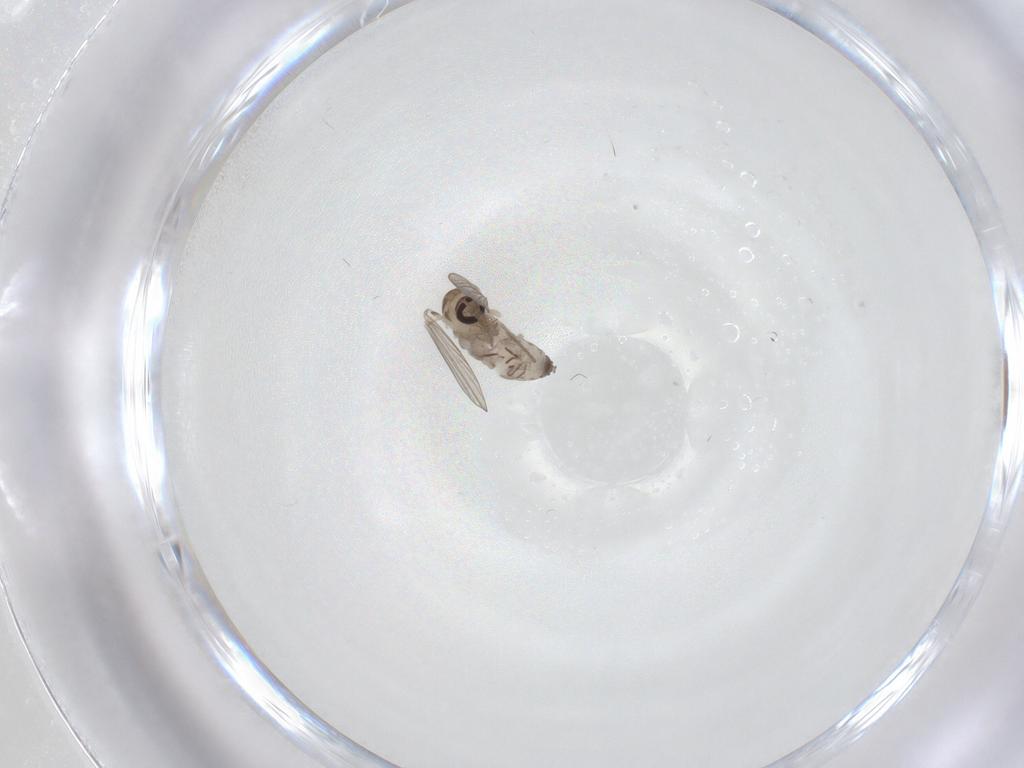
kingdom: Animalia
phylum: Arthropoda
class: Insecta
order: Diptera
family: Psychodidae
